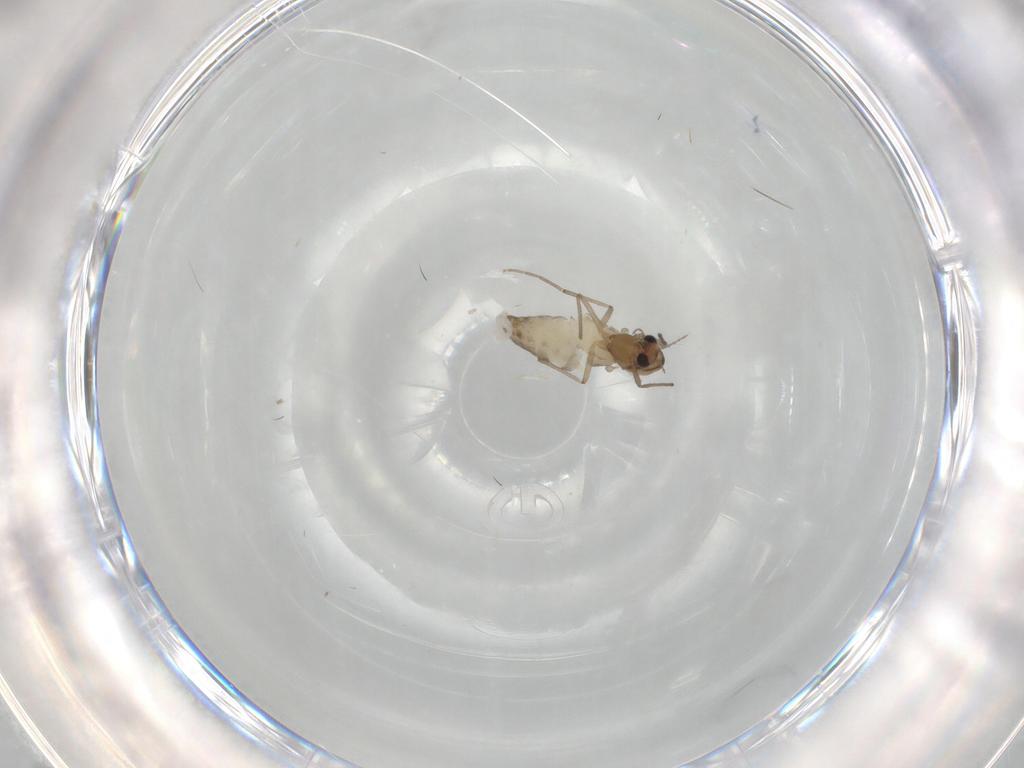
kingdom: Animalia
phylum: Arthropoda
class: Insecta
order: Diptera
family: Chironomidae
